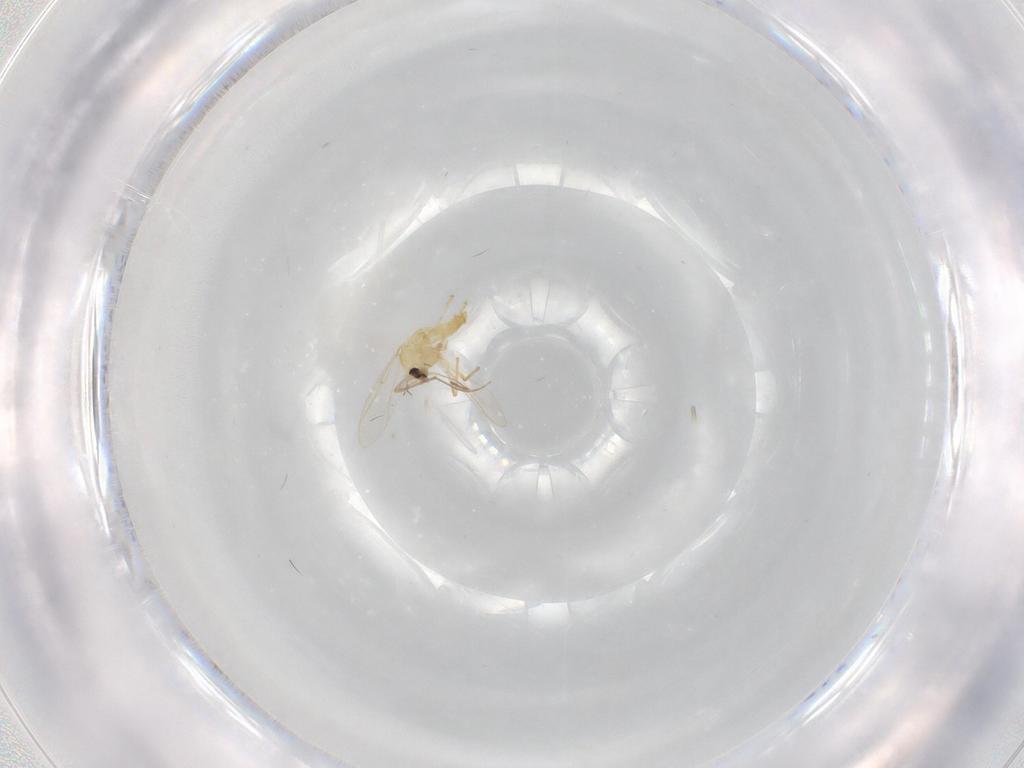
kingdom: Animalia
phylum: Arthropoda
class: Insecta
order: Diptera
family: Chironomidae
